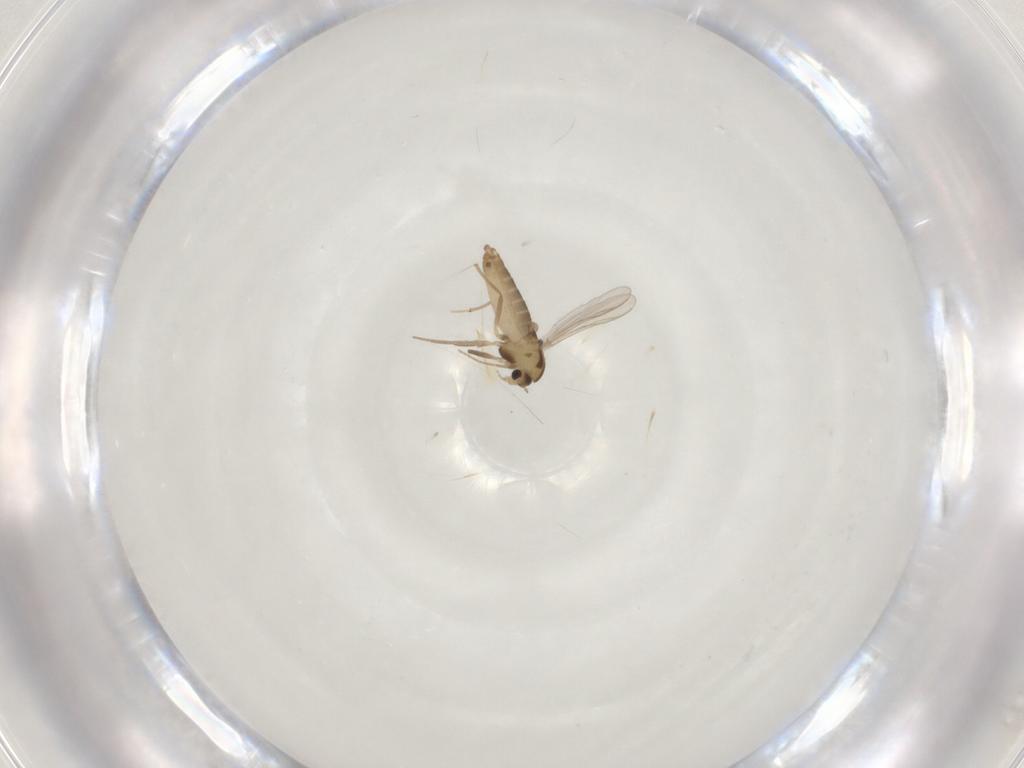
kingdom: Animalia
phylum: Arthropoda
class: Insecta
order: Diptera
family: Chironomidae
